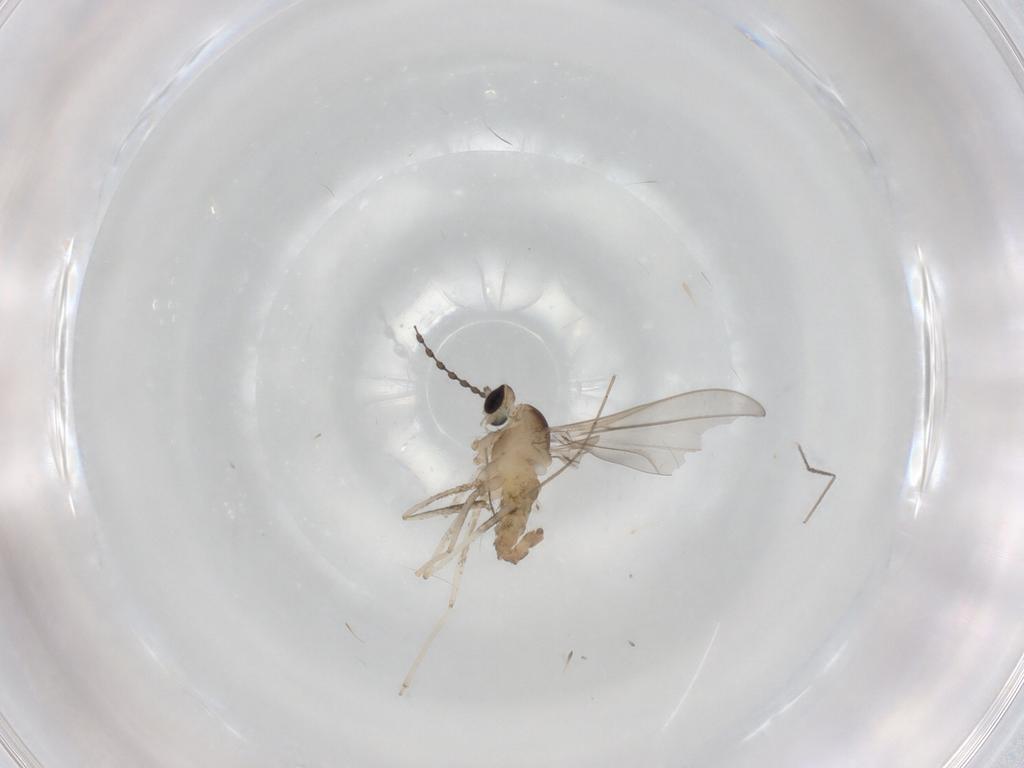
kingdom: Animalia
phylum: Arthropoda
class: Insecta
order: Diptera
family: Cecidomyiidae
